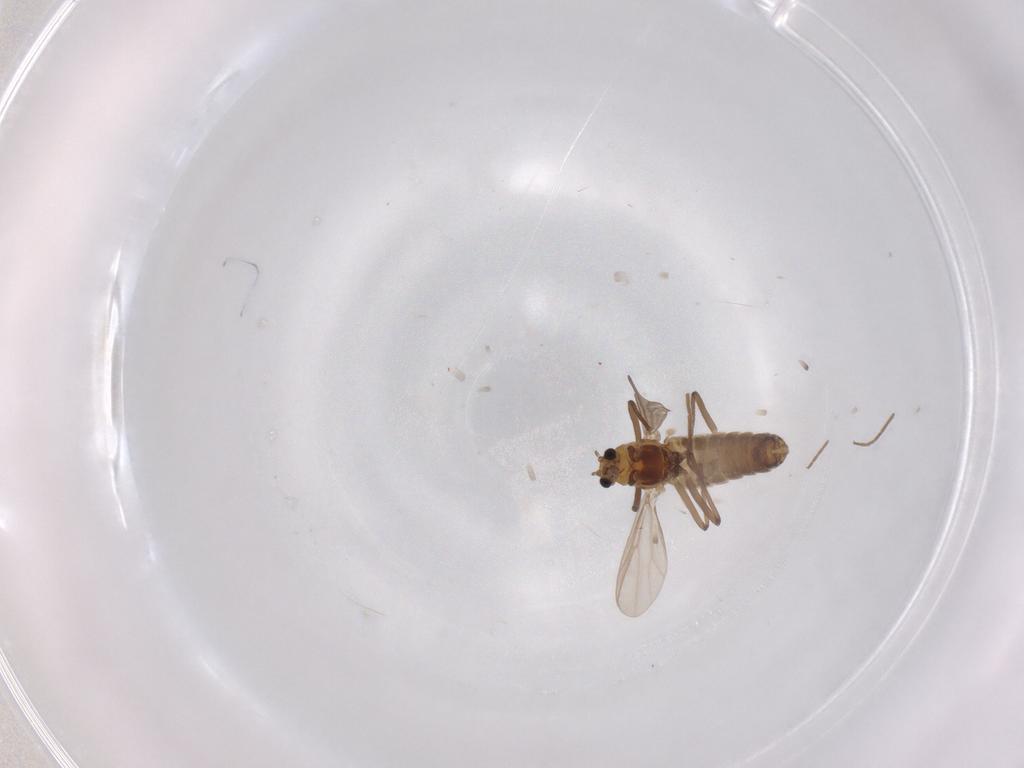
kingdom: Animalia
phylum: Arthropoda
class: Insecta
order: Diptera
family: Chironomidae
